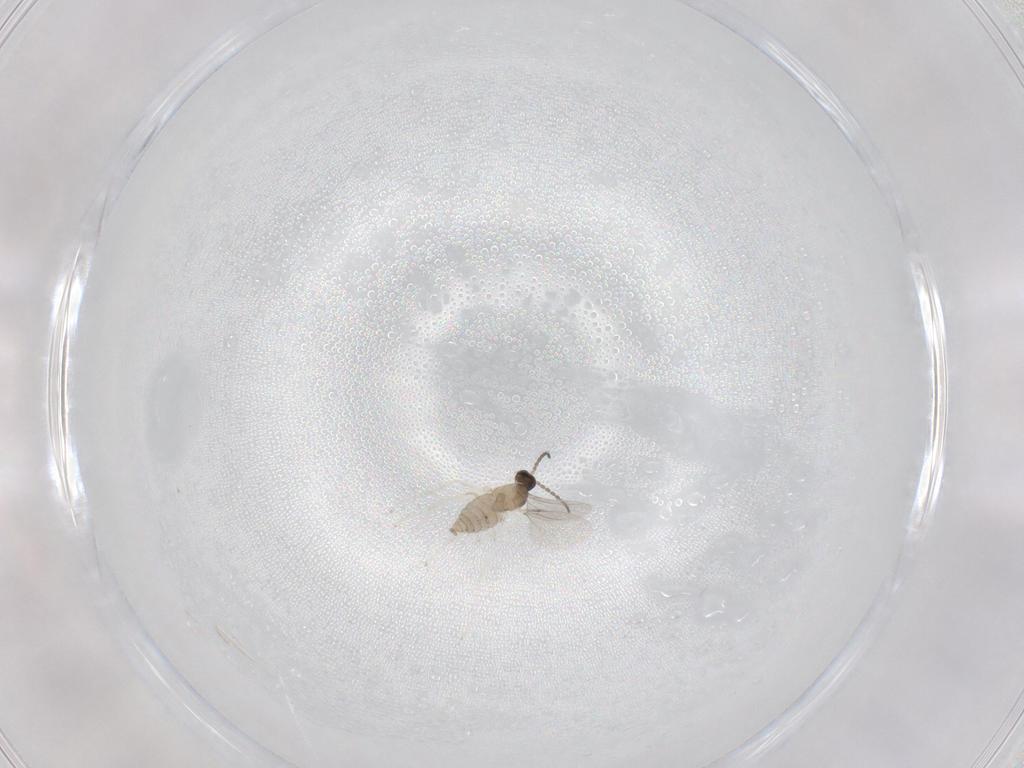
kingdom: Animalia
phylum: Arthropoda
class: Insecta
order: Diptera
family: Cecidomyiidae
